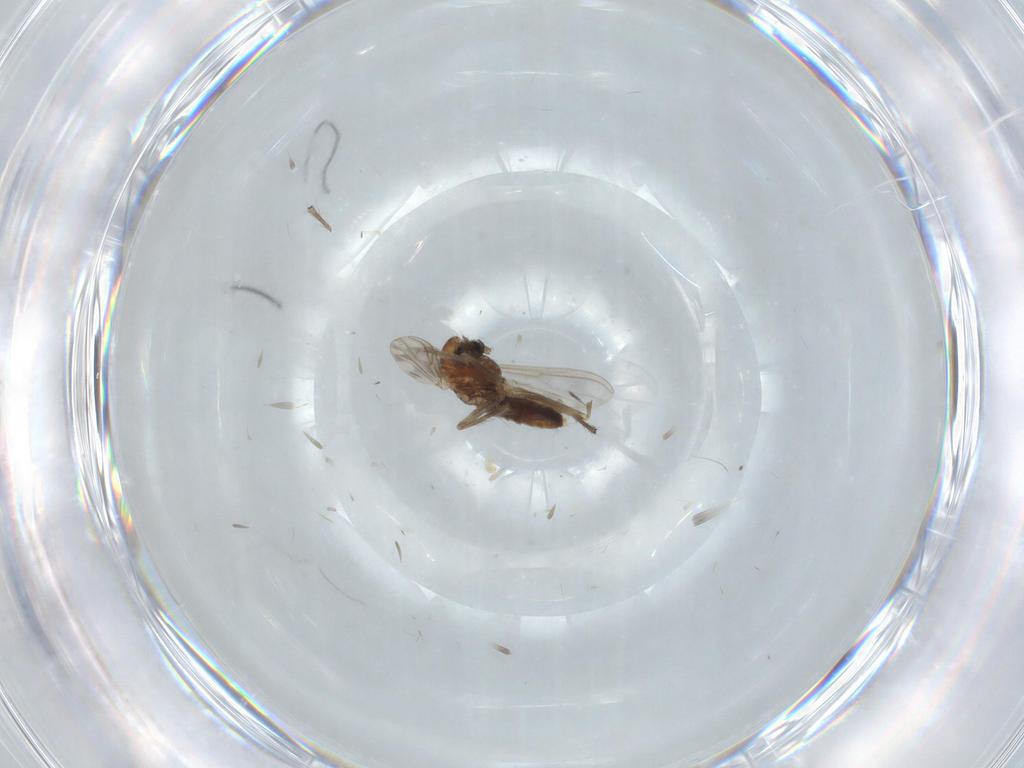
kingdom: Animalia
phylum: Arthropoda
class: Insecta
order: Diptera
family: Chironomidae
